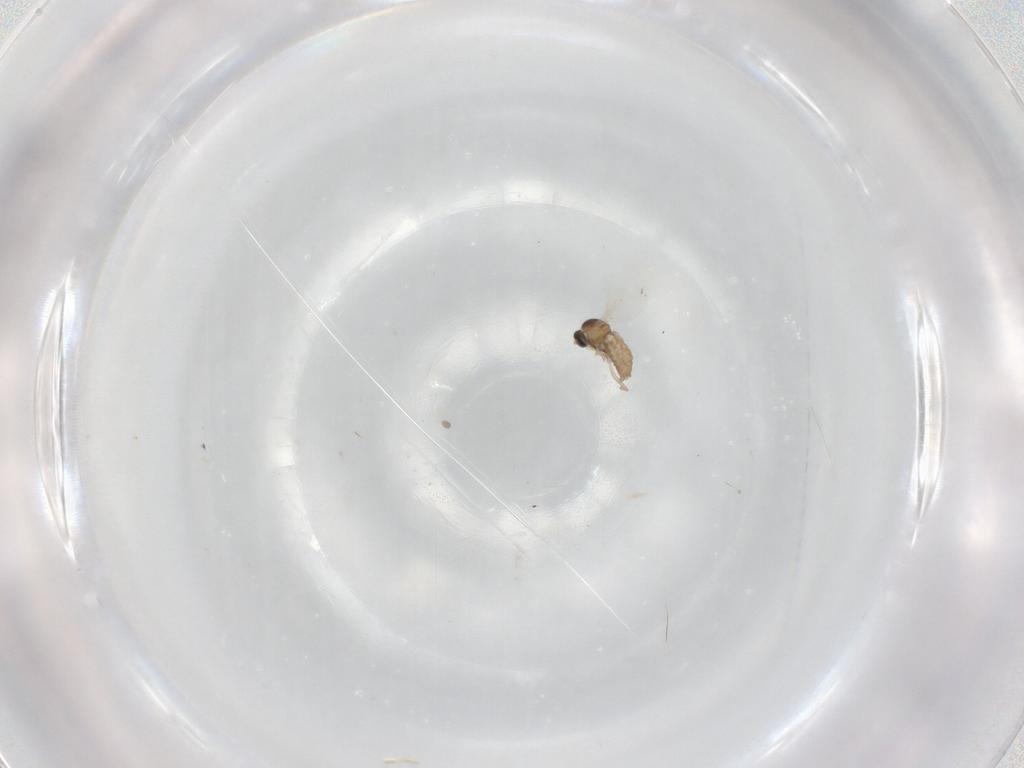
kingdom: Animalia
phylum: Arthropoda
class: Insecta
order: Diptera
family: Cecidomyiidae
